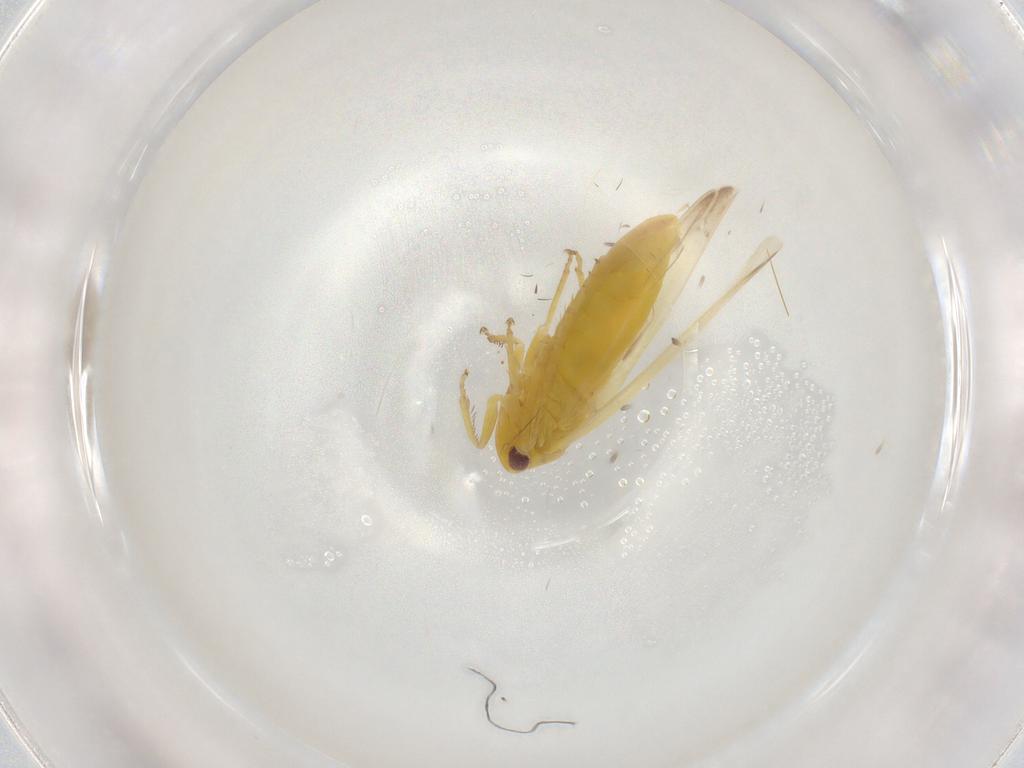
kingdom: Animalia
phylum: Arthropoda
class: Insecta
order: Hemiptera
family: Cicadellidae
